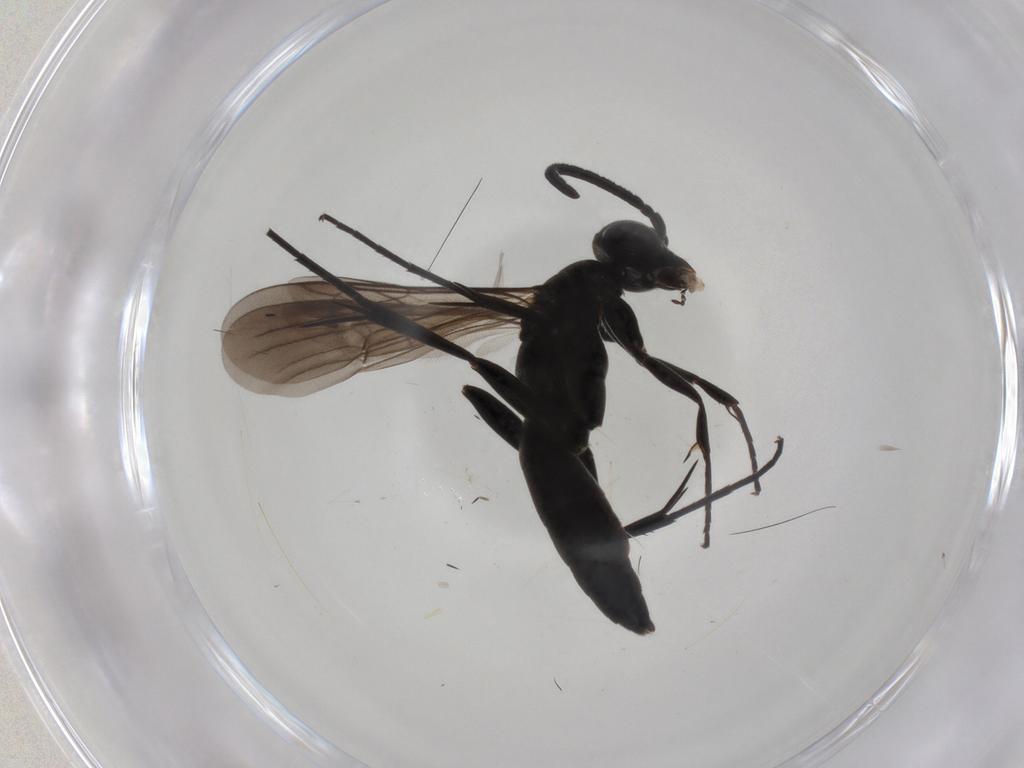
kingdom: Animalia
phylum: Arthropoda
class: Insecta
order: Hymenoptera
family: Pompilidae
